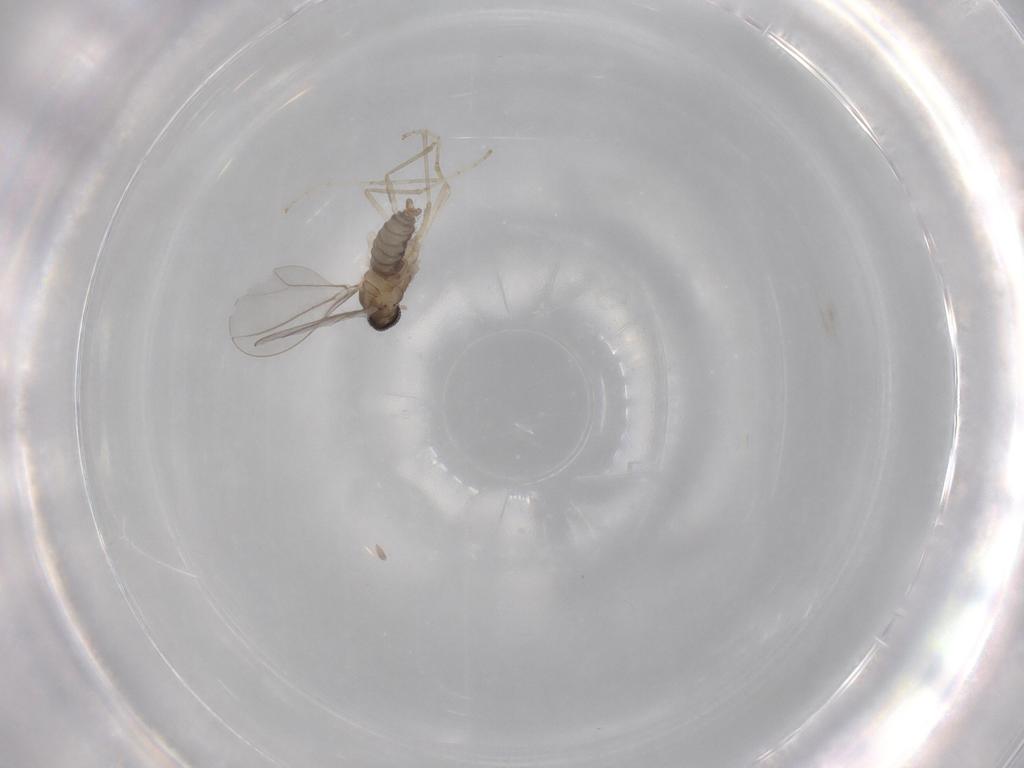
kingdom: Animalia
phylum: Arthropoda
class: Insecta
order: Diptera
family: Cecidomyiidae
